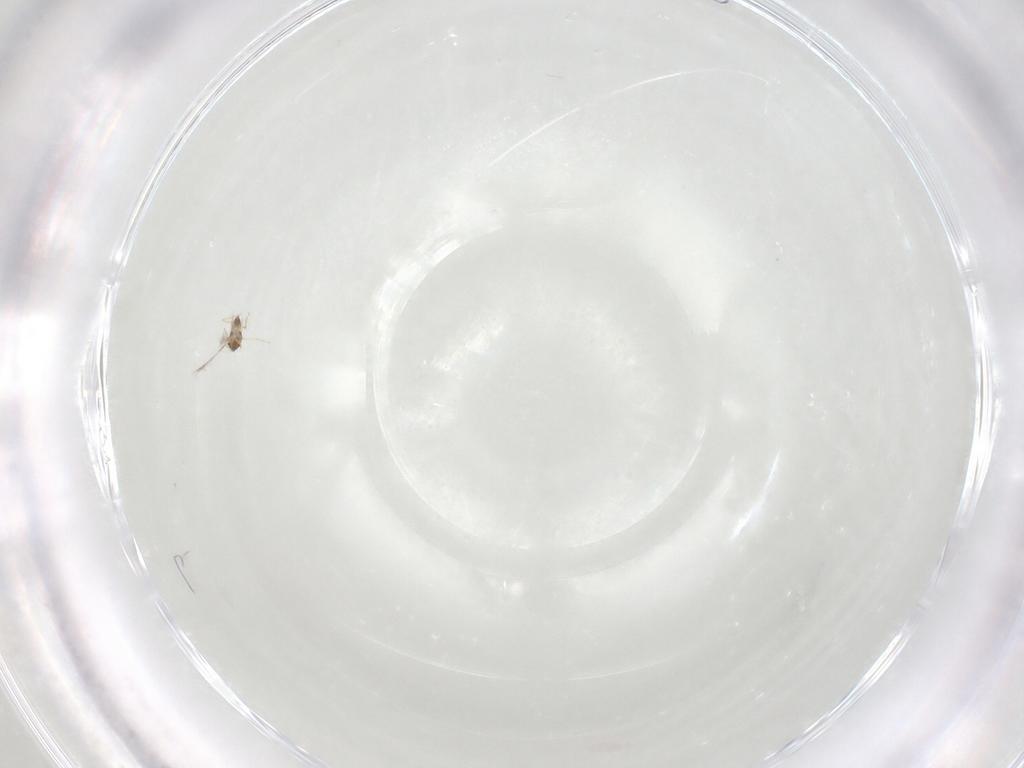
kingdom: Animalia
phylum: Arthropoda
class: Insecta
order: Hymenoptera
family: Mymaridae
